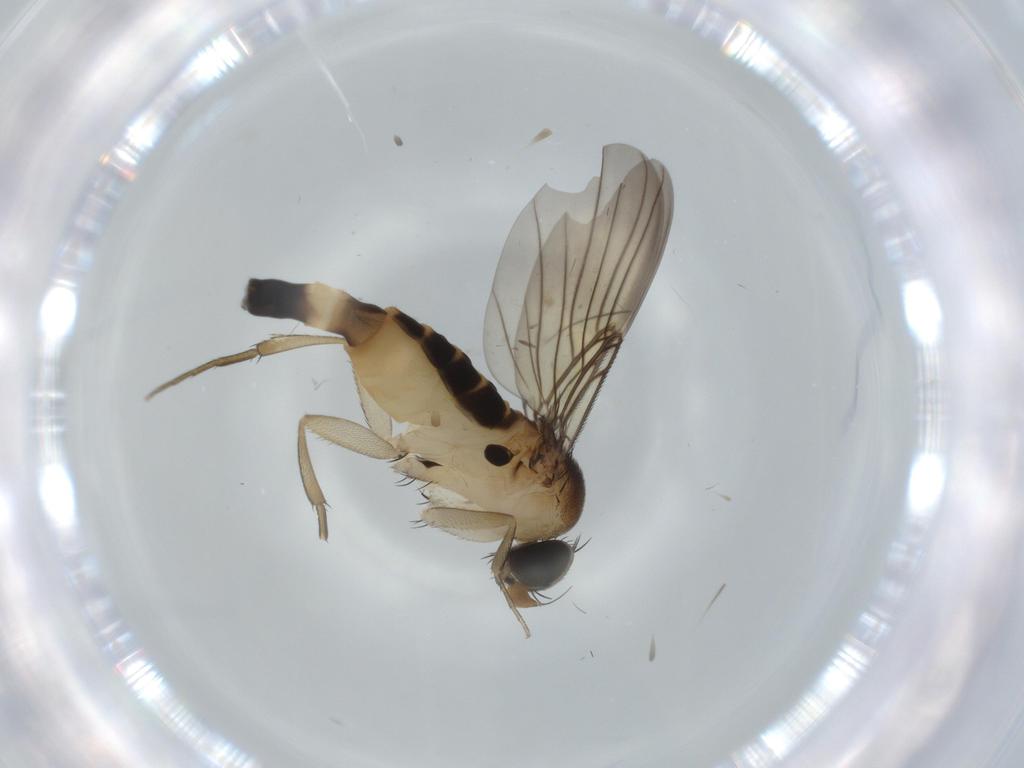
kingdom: Animalia
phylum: Arthropoda
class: Insecta
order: Diptera
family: Phoridae
